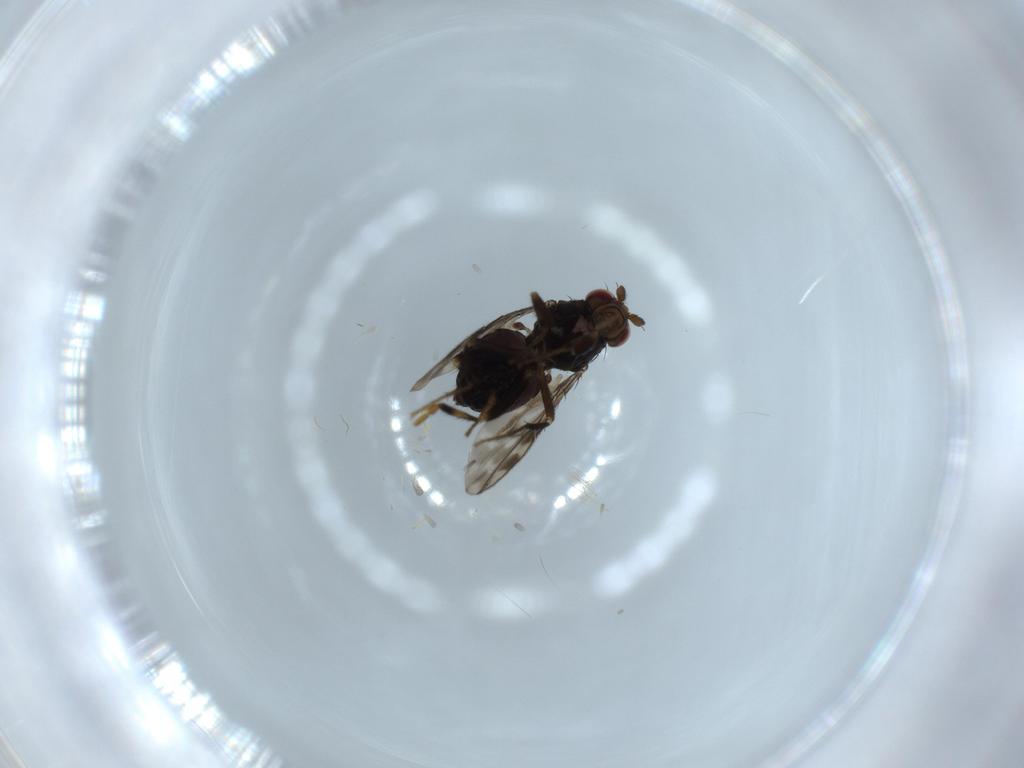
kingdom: Animalia
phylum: Arthropoda
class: Insecta
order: Diptera
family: Sphaeroceridae
